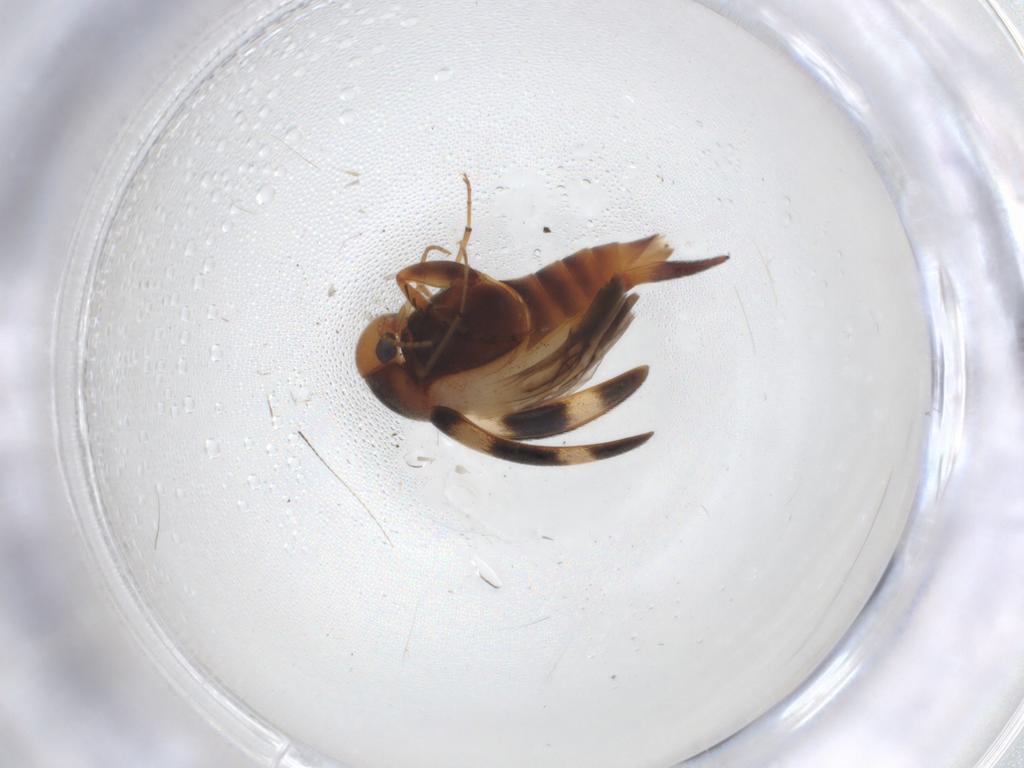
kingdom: Animalia
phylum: Arthropoda
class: Insecta
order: Coleoptera
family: Mordellidae
